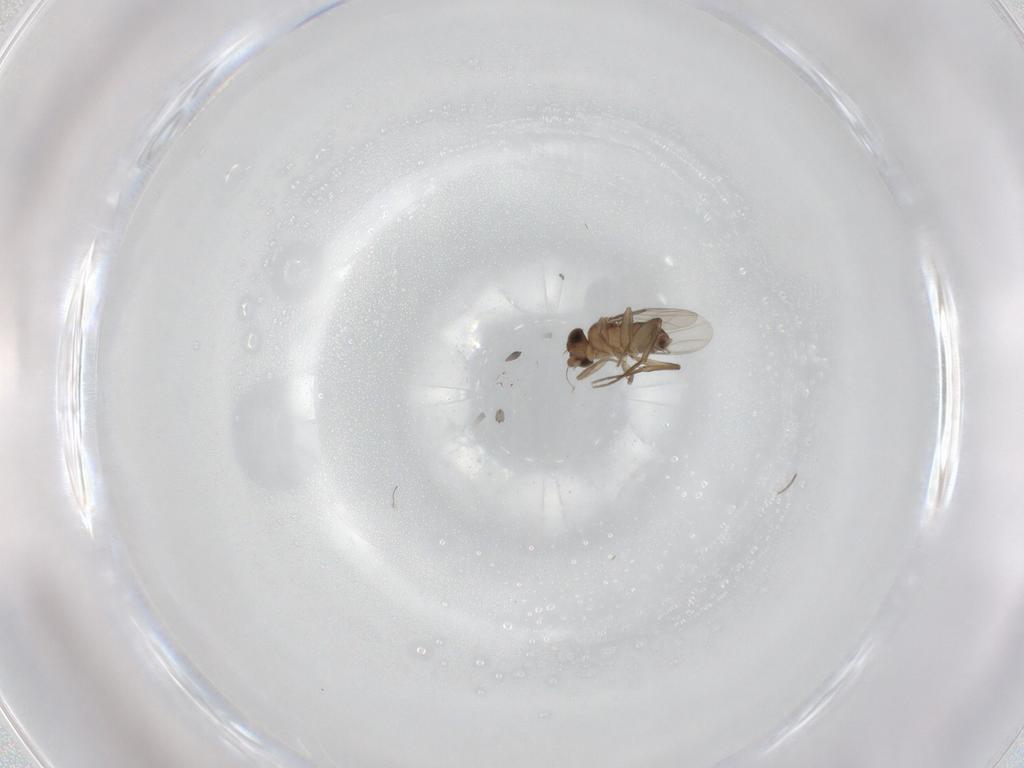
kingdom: Animalia
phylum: Arthropoda
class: Insecta
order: Diptera
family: Phoridae
